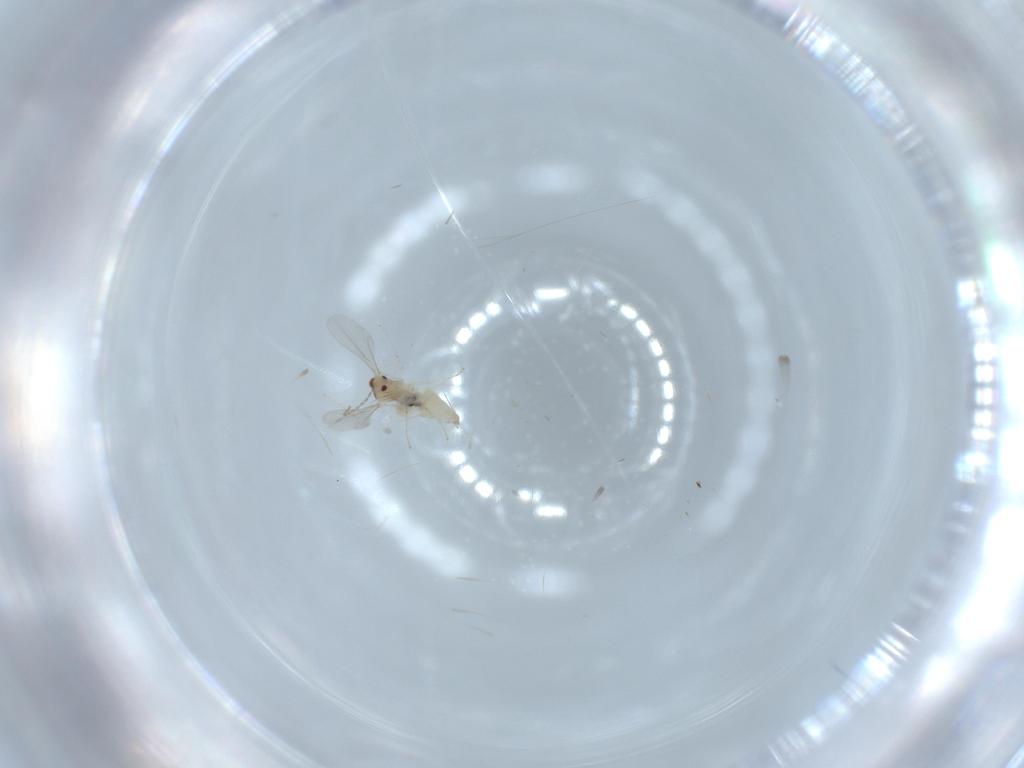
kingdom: Animalia
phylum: Arthropoda
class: Insecta
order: Diptera
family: Cecidomyiidae
